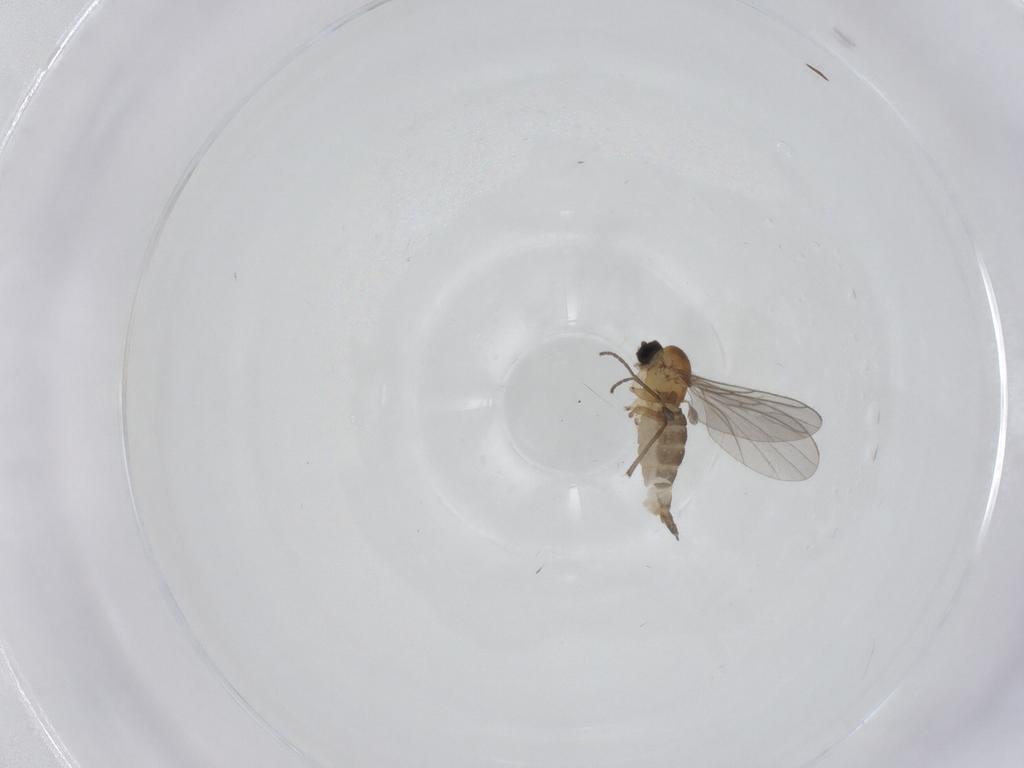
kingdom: Animalia
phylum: Arthropoda
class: Insecta
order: Diptera
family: Sciaridae
